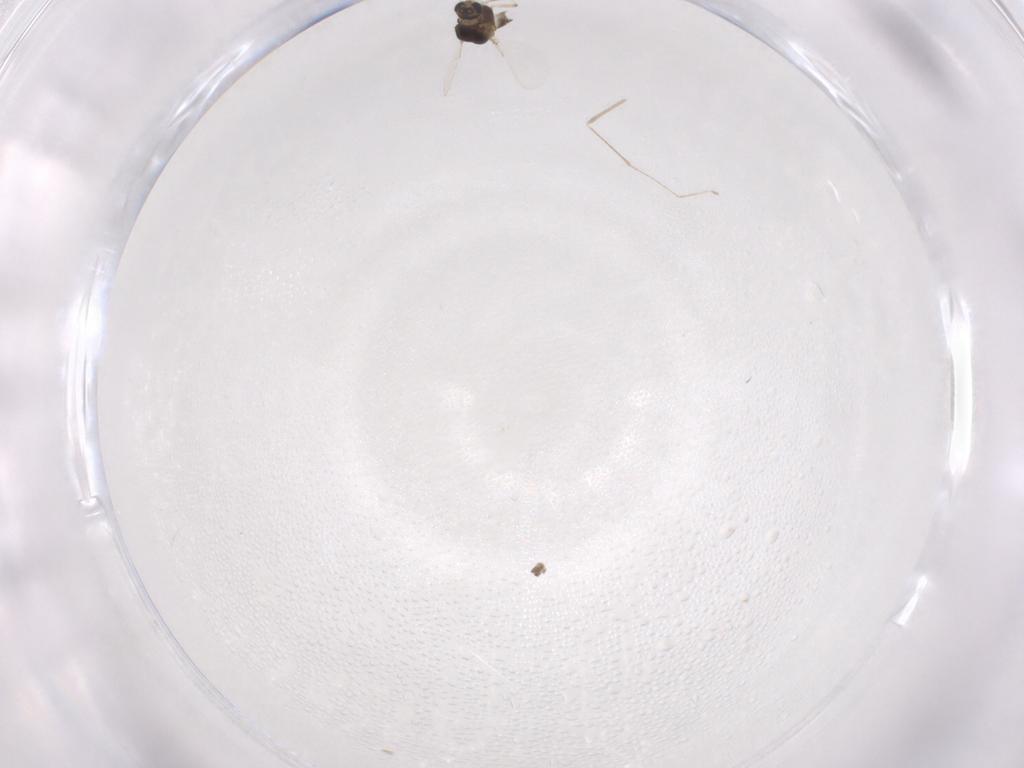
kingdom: Animalia
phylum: Arthropoda
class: Insecta
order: Diptera
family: Chironomidae
